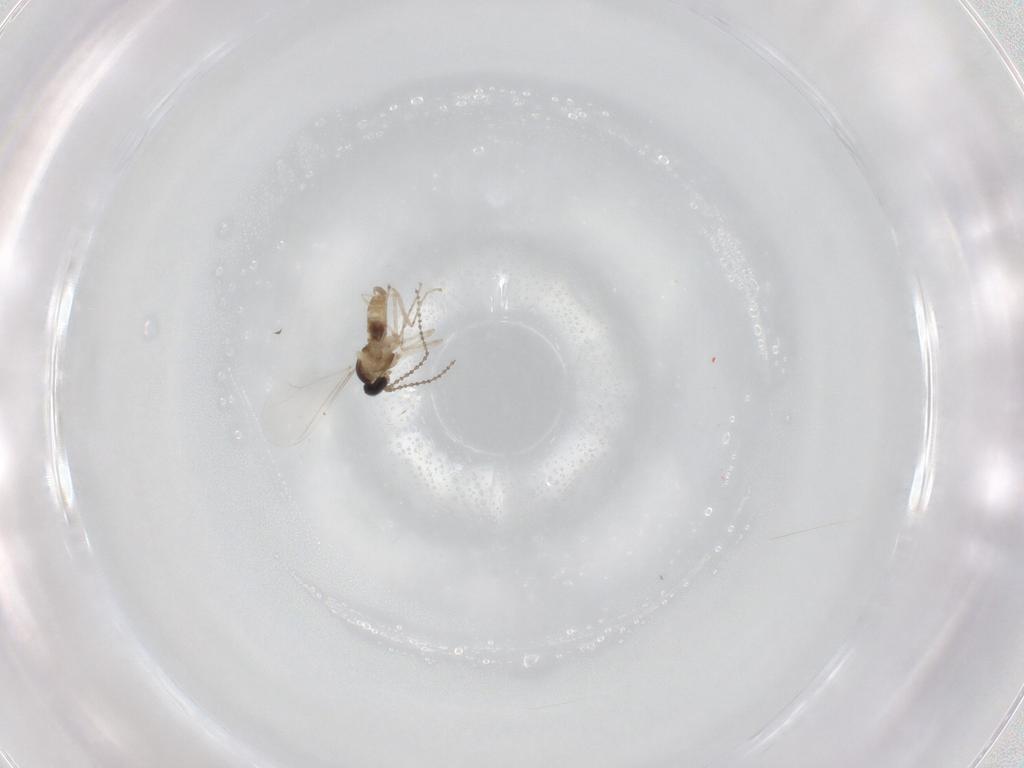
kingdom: Animalia
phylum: Arthropoda
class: Insecta
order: Diptera
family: Cecidomyiidae
